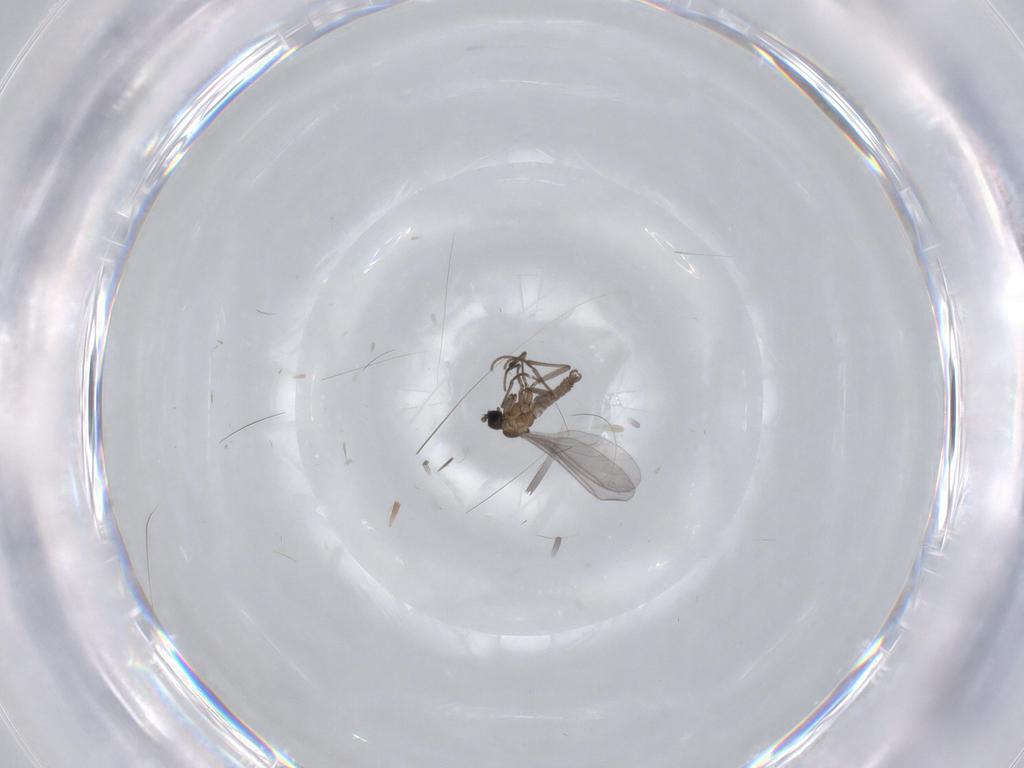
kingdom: Animalia
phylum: Arthropoda
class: Insecta
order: Diptera
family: Sciaridae
